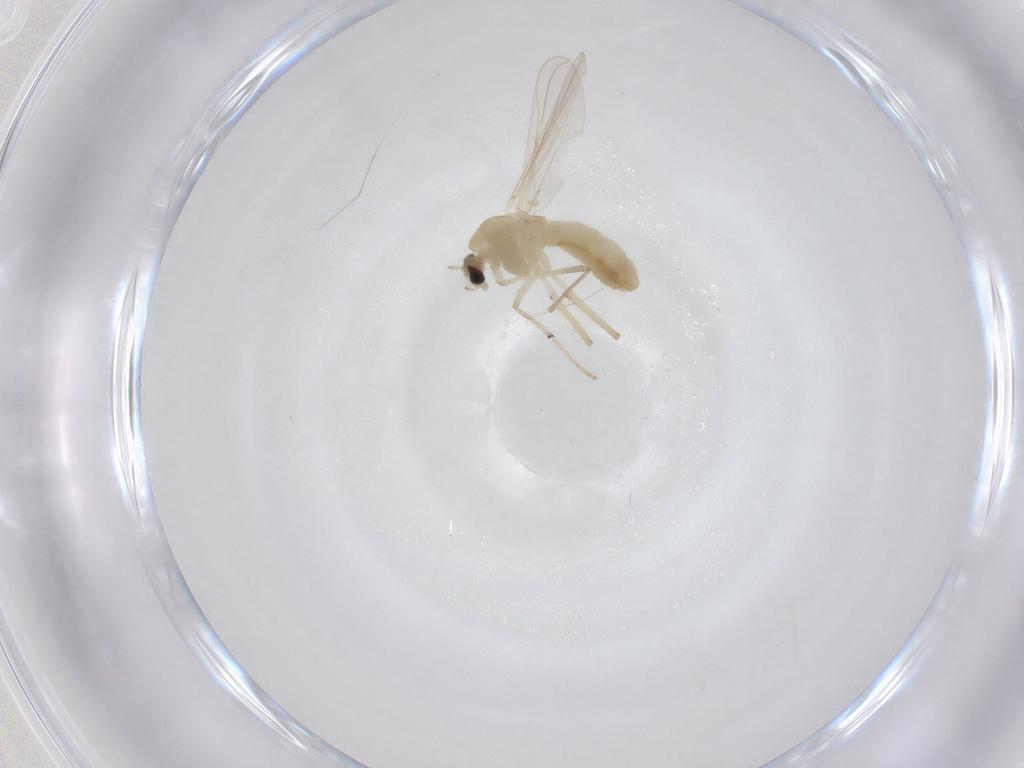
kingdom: Animalia
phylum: Arthropoda
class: Insecta
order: Diptera
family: Chironomidae
